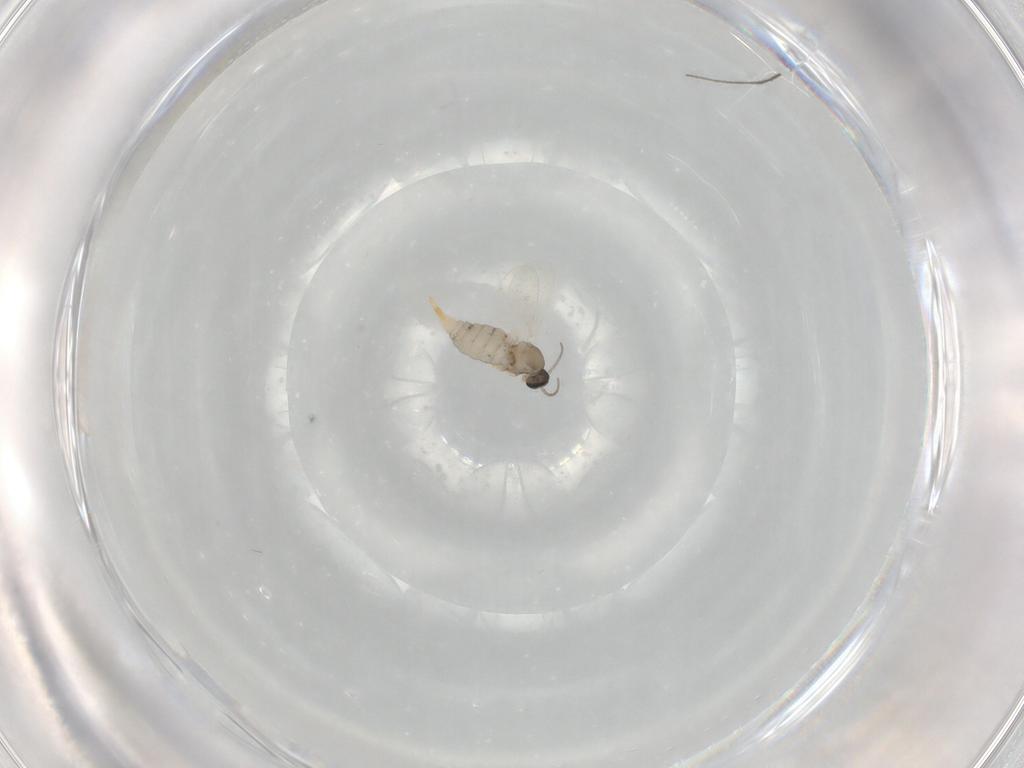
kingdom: Animalia
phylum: Arthropoda
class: Insecta
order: Diptera
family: Chironomidae
